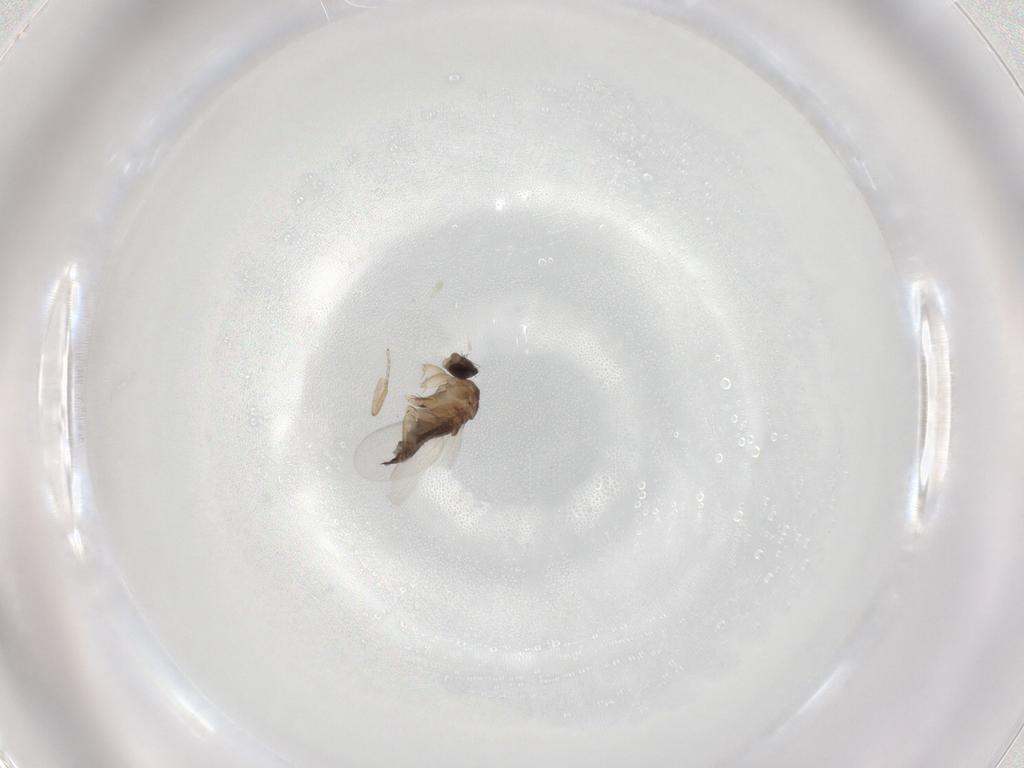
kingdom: Animalia
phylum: Arthropoda
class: Insecta
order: Diptera
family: Phoridae
